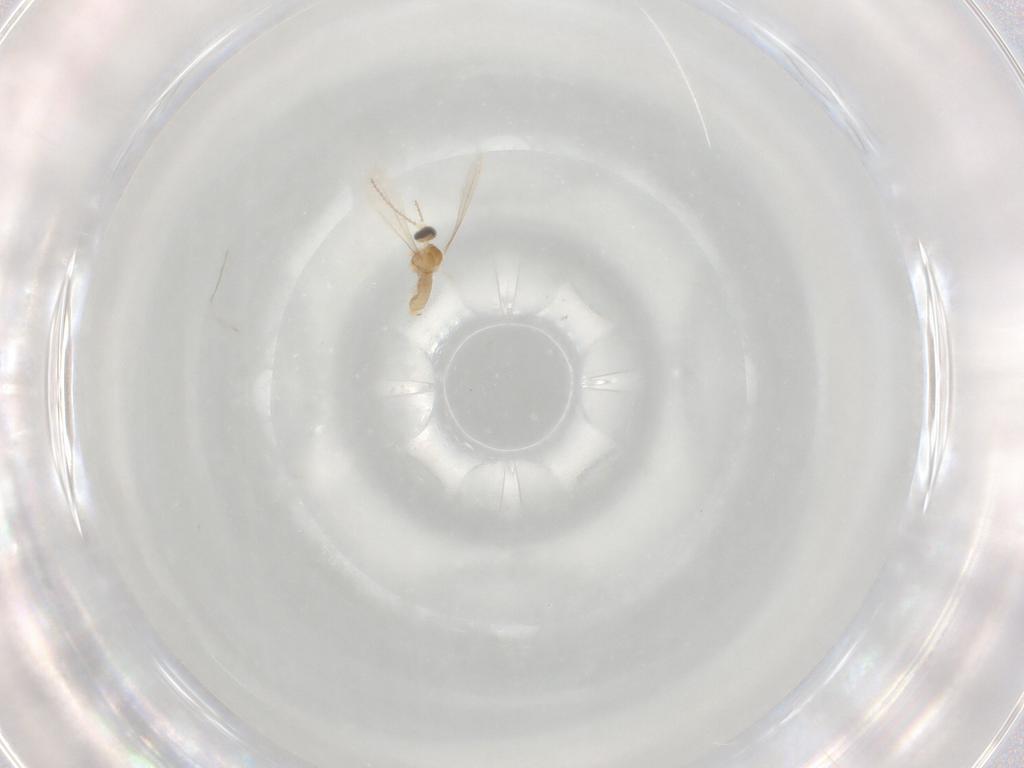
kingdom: Animalia
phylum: Arthropoda
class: Insecta
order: Diptera
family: Cecidomyiidae
